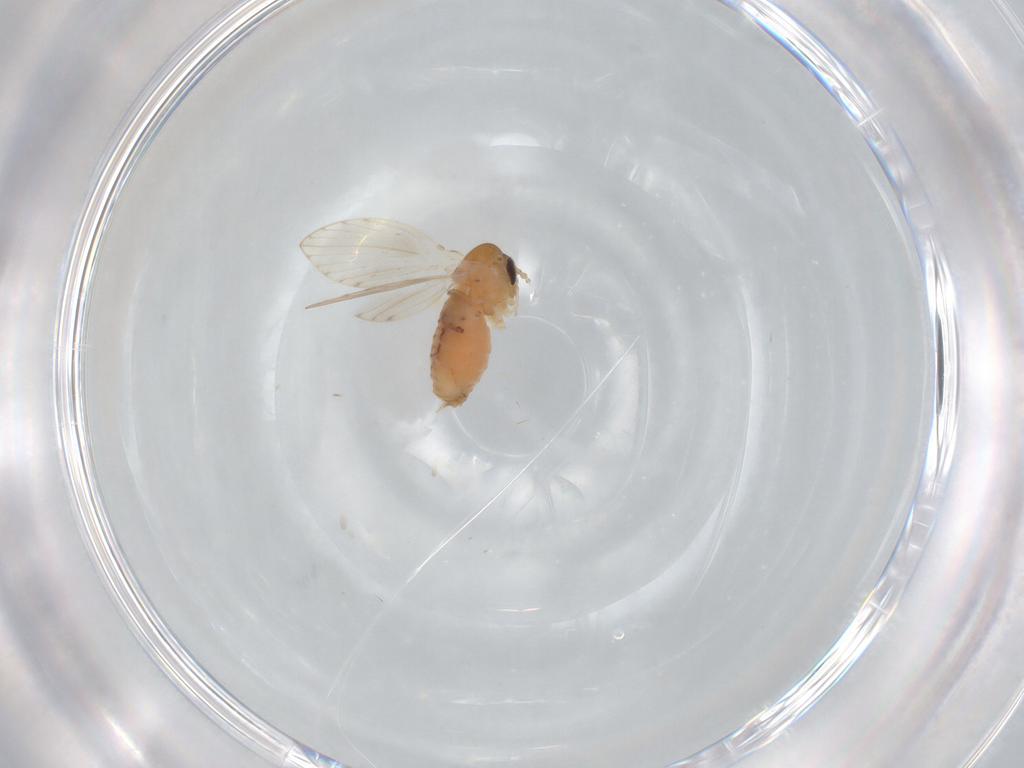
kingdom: Animalia
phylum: Arthropoda
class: Insecta
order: Diptera
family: Psychodidae
